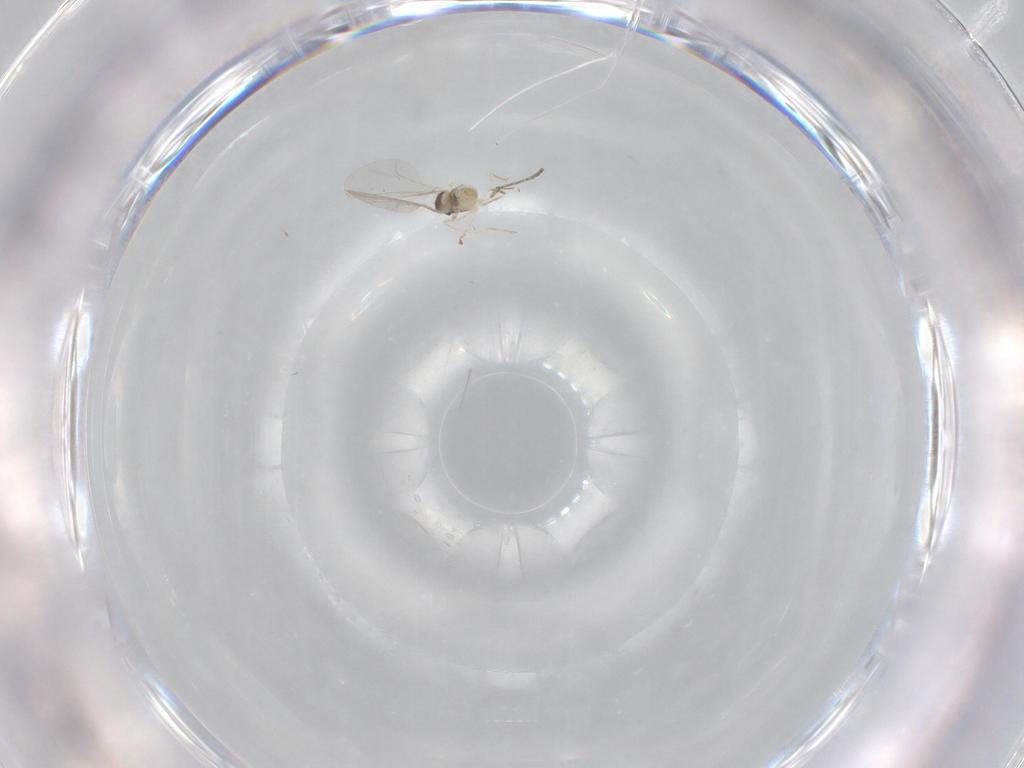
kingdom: Animalia
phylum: Arthropoda
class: Insecta
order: Diptera
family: Cecidomyiidae
